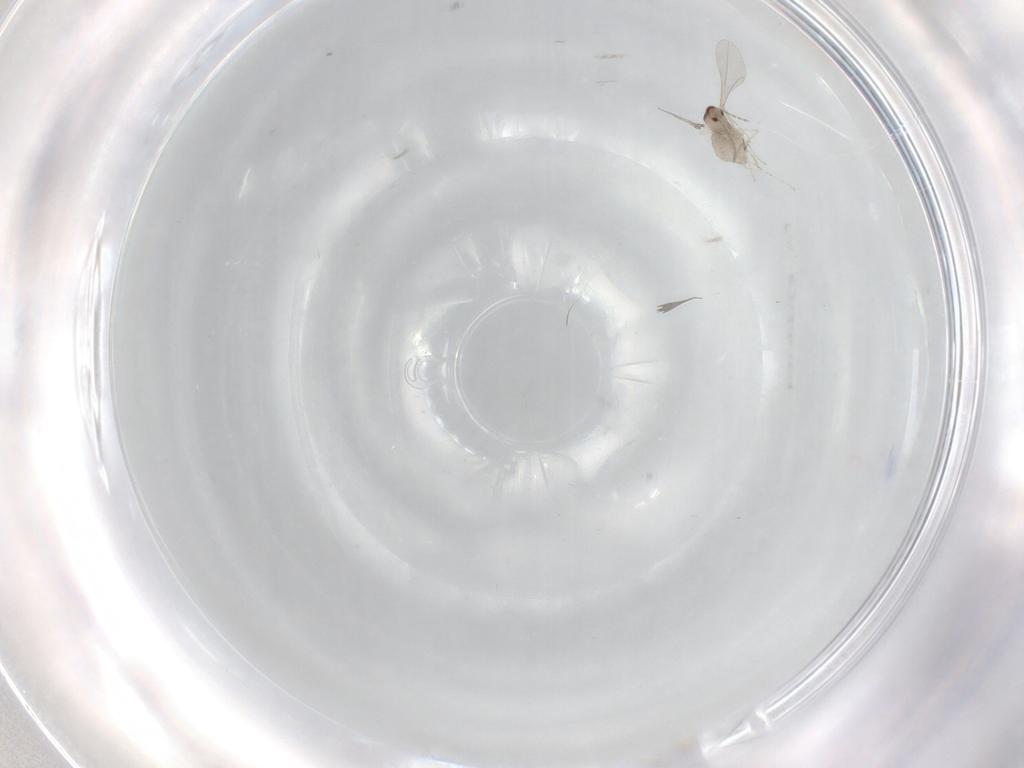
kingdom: Animalia
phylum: Arthropoda
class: Insecta
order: Diptera
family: Cecidomyiidae
